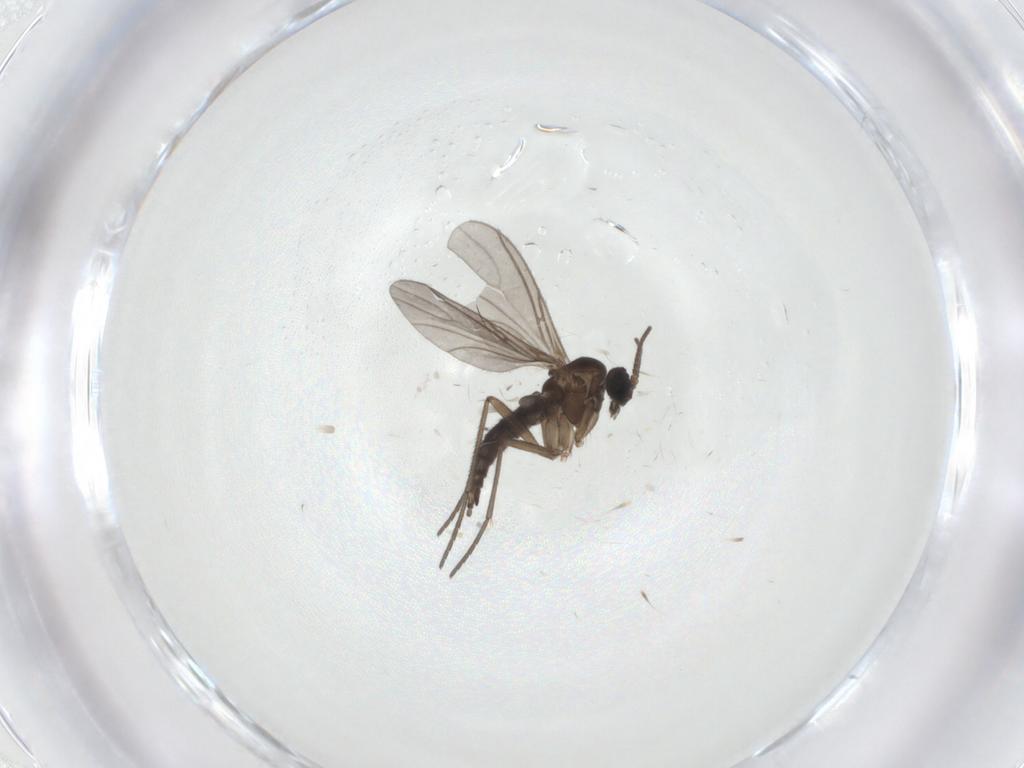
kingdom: Animalia
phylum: Arthropoda
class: Insecta
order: Diptera
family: Sciaridae
